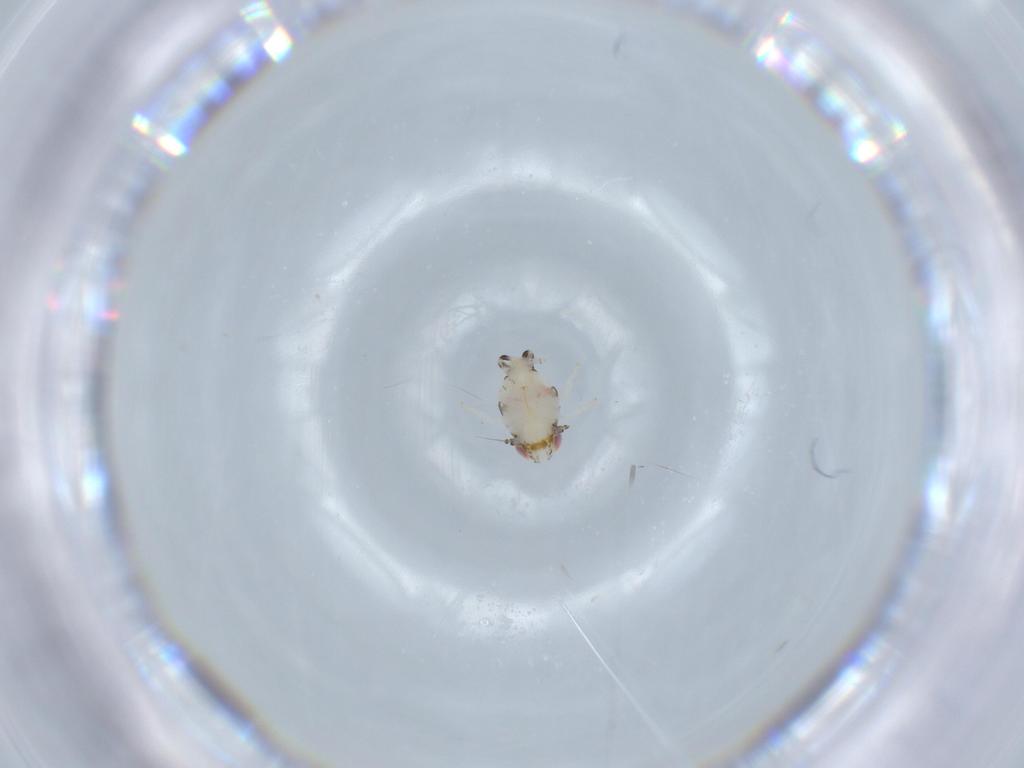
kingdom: Animalia
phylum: Arthropoda
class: Insecta
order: Hemiptera
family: Nogodinidae
